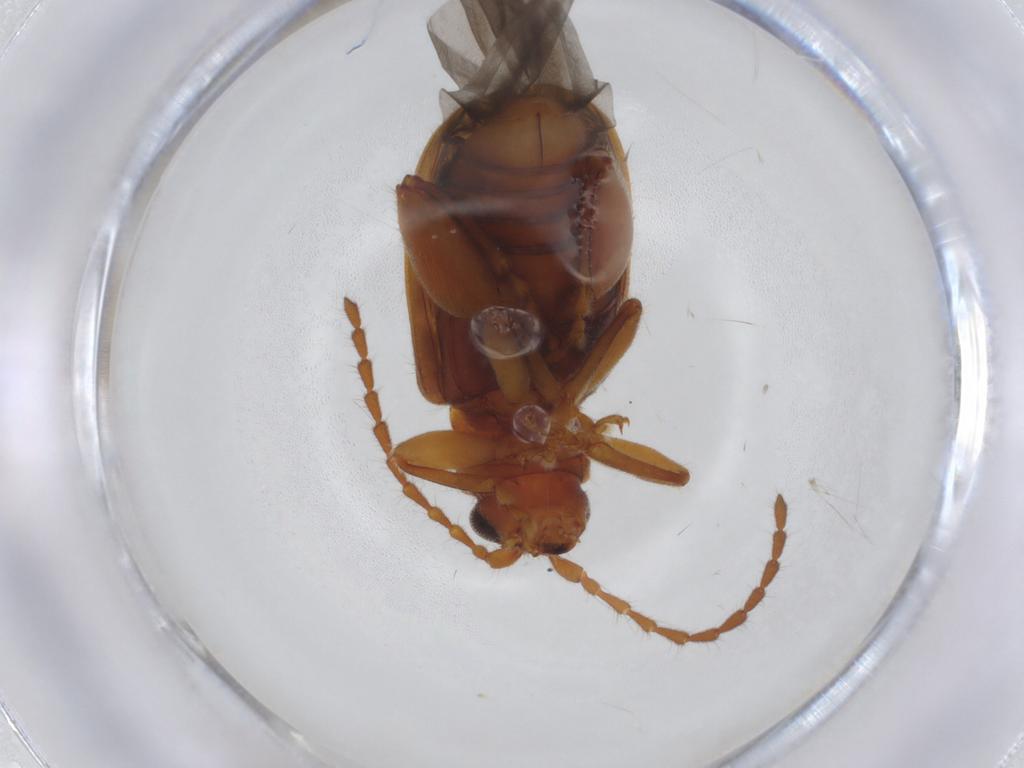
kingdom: Animalia
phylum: Arthropoda
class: Insecta
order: Coleoptera
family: Chrysomelidae
